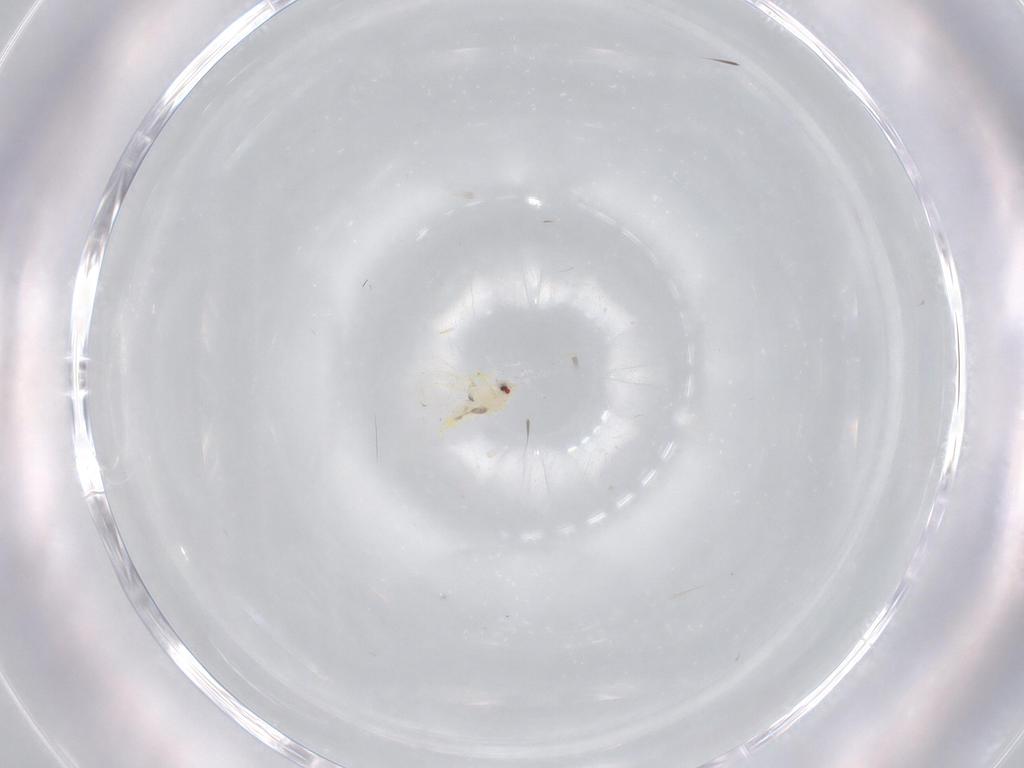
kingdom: Animalia
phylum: Arthropoda
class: Insecta
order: Hemiptera
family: Aleyrodidae
